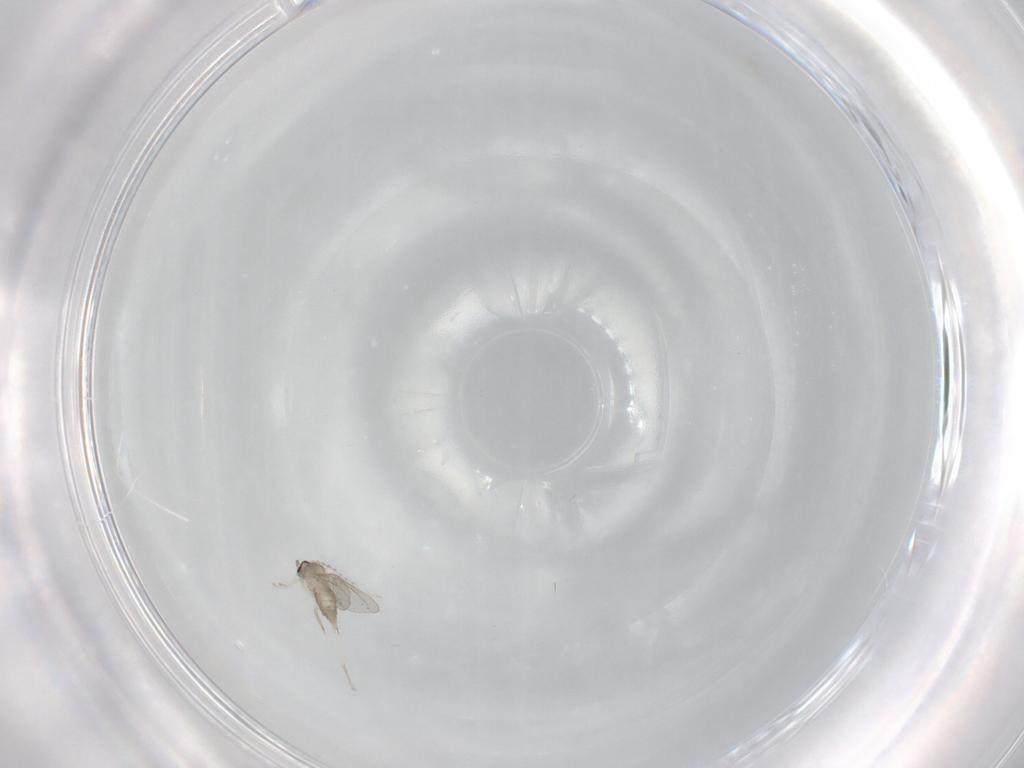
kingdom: Animalia
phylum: Arthropoda
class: Insecta
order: Diptera
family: Cecidomyiidae
